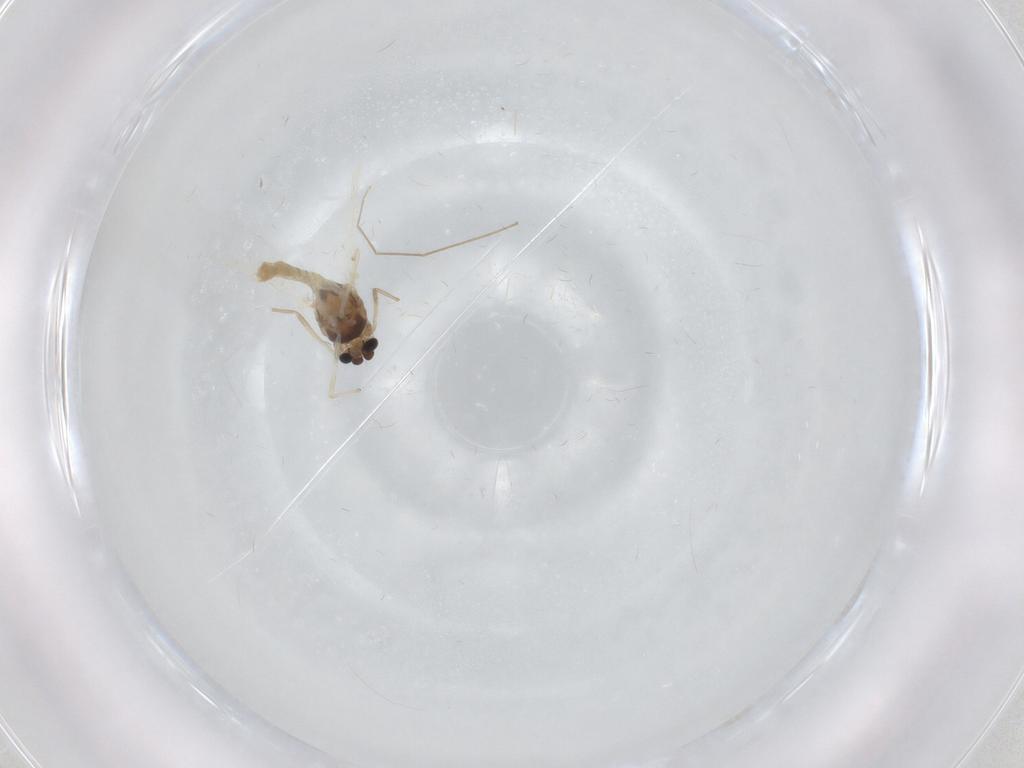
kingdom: Animalia
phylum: Arthropoda
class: Insecta
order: Diptera
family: Chironomidae
